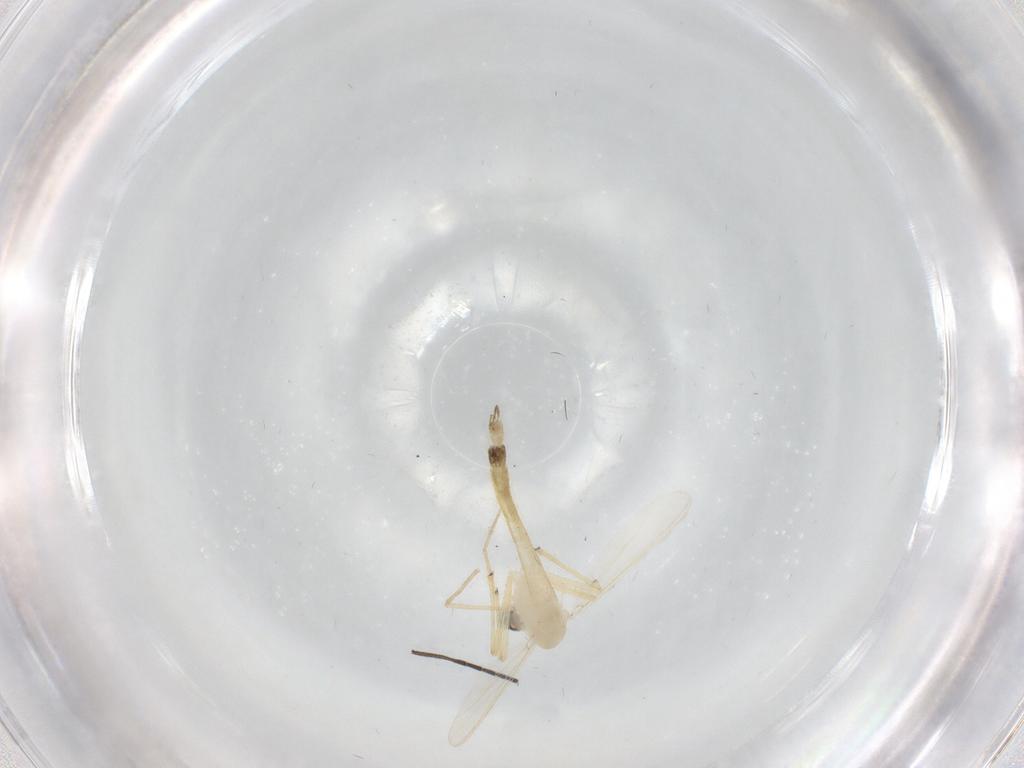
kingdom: Animalia
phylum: Arthropoda
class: Insecta
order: Diptera
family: Chironomidae
